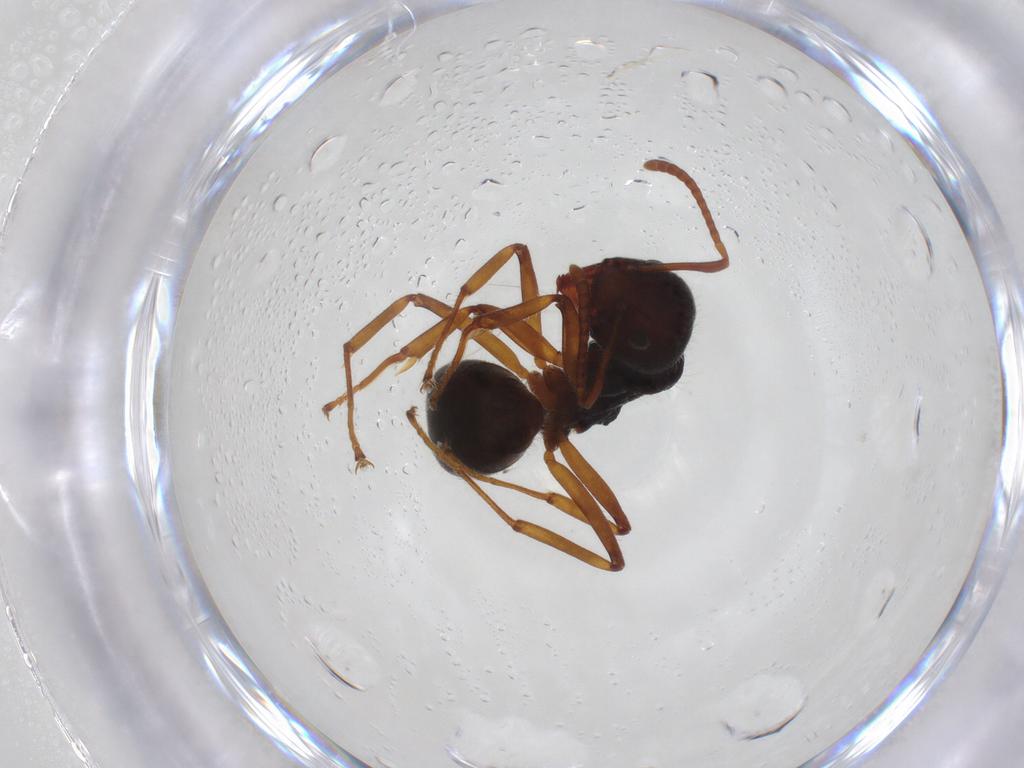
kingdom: Animalia
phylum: Arthropoda
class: Insecta
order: Hymenoptera
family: Formicidae
